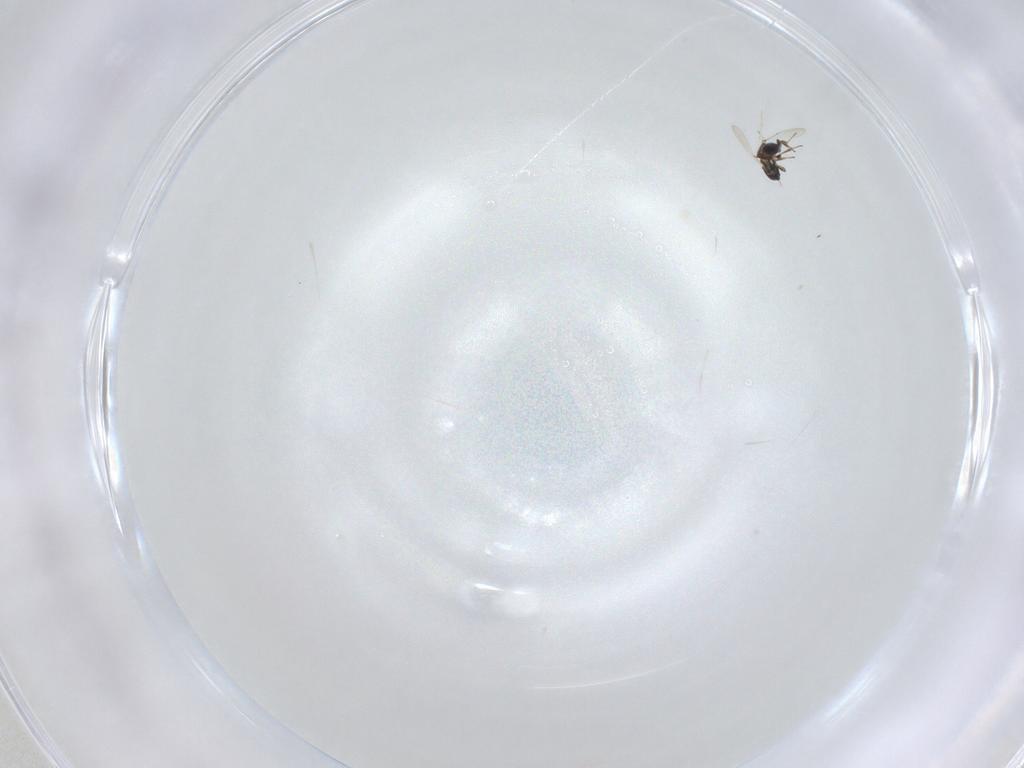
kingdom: Animalia
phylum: Arthropoda
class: Insecta
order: Hymenoptera
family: Platygastridae
